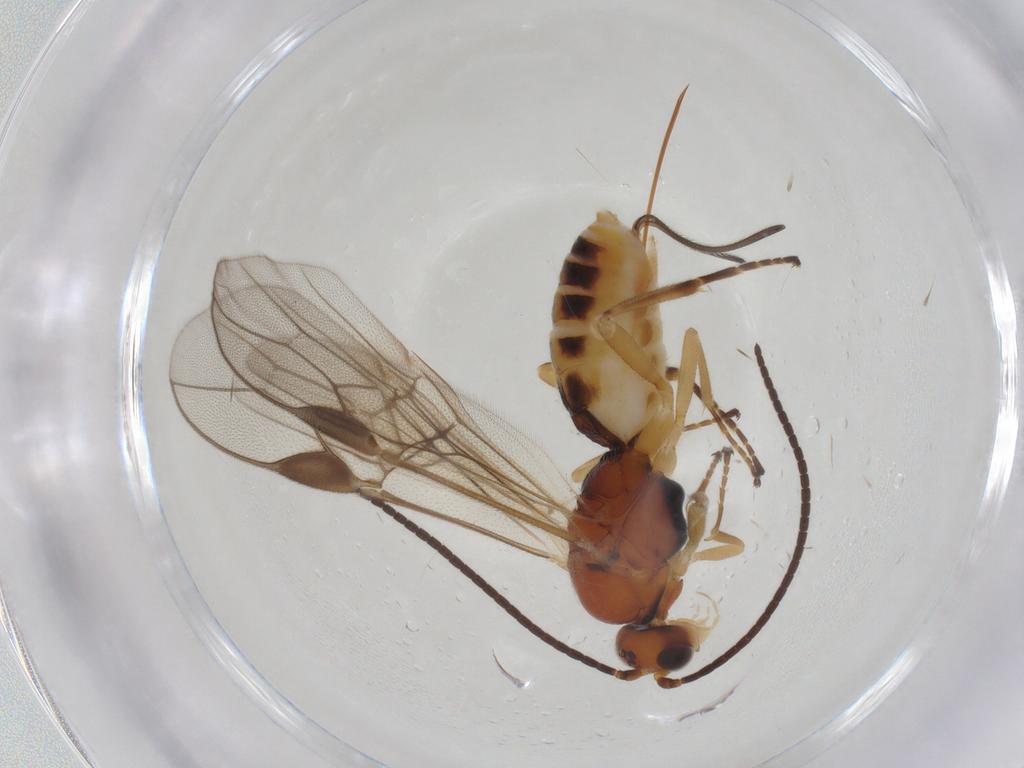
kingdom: Animalia
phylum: Arthropoda
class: Insecta
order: Hymenoptera
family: Braconidae
